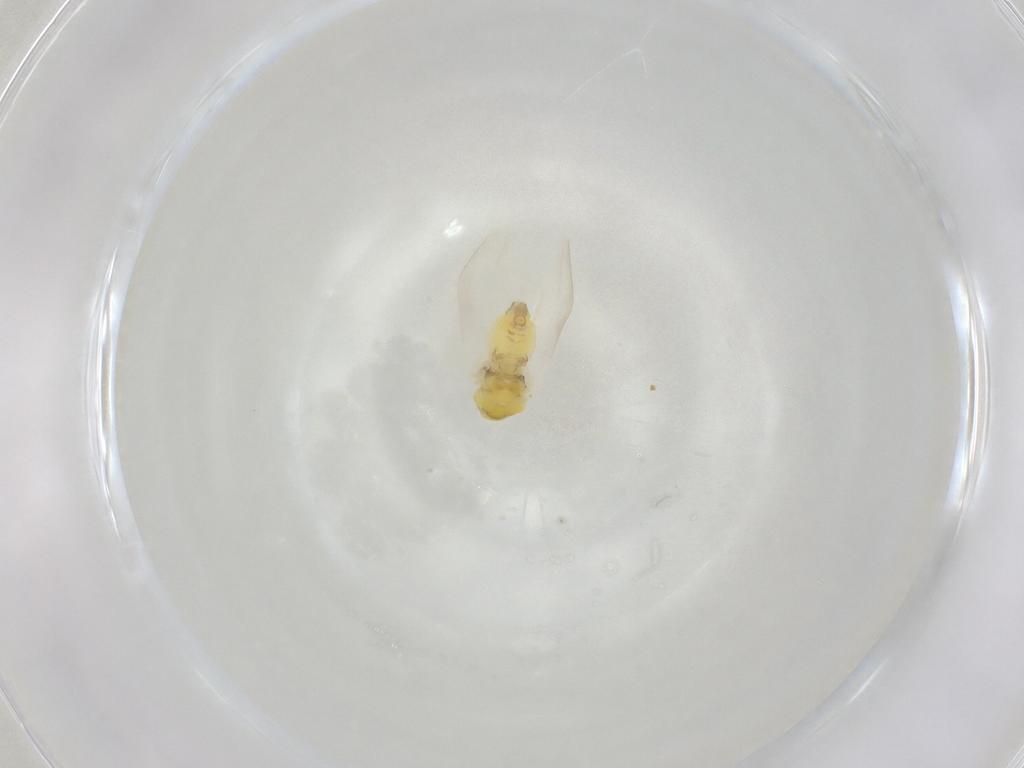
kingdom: Animalia
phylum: Arthropoda
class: Insecta
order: Hemiptera
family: Aleyrodidae
